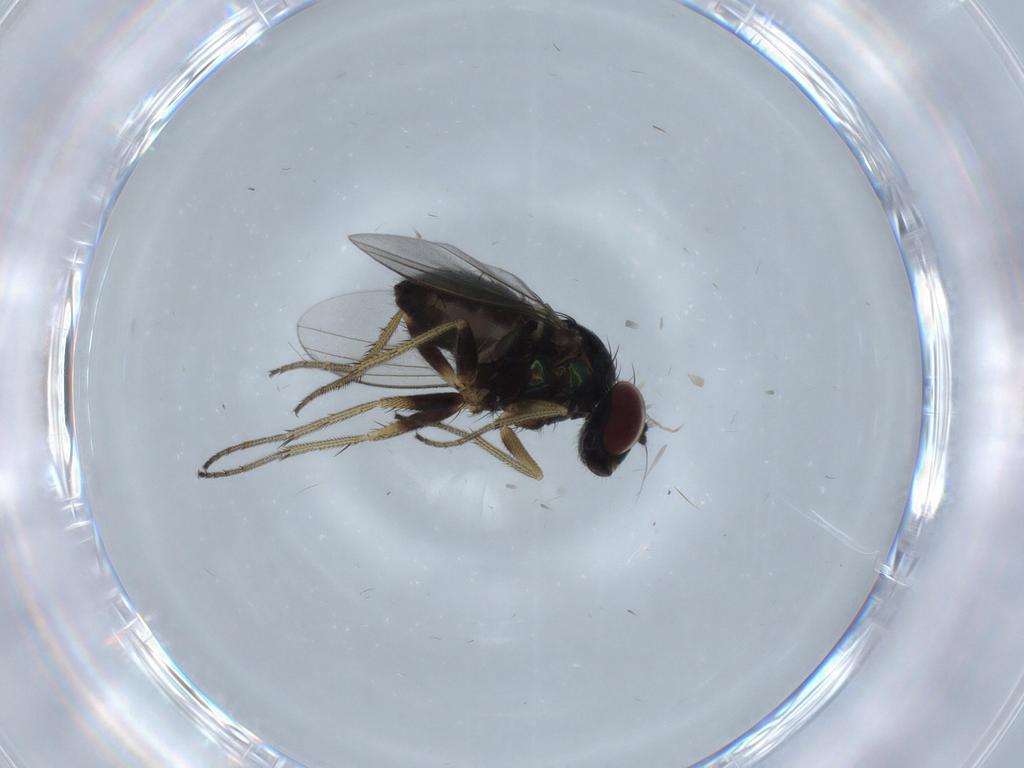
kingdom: Animalia
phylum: Arthropoda
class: Insecta
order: Diptera
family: Dolichopodidae
